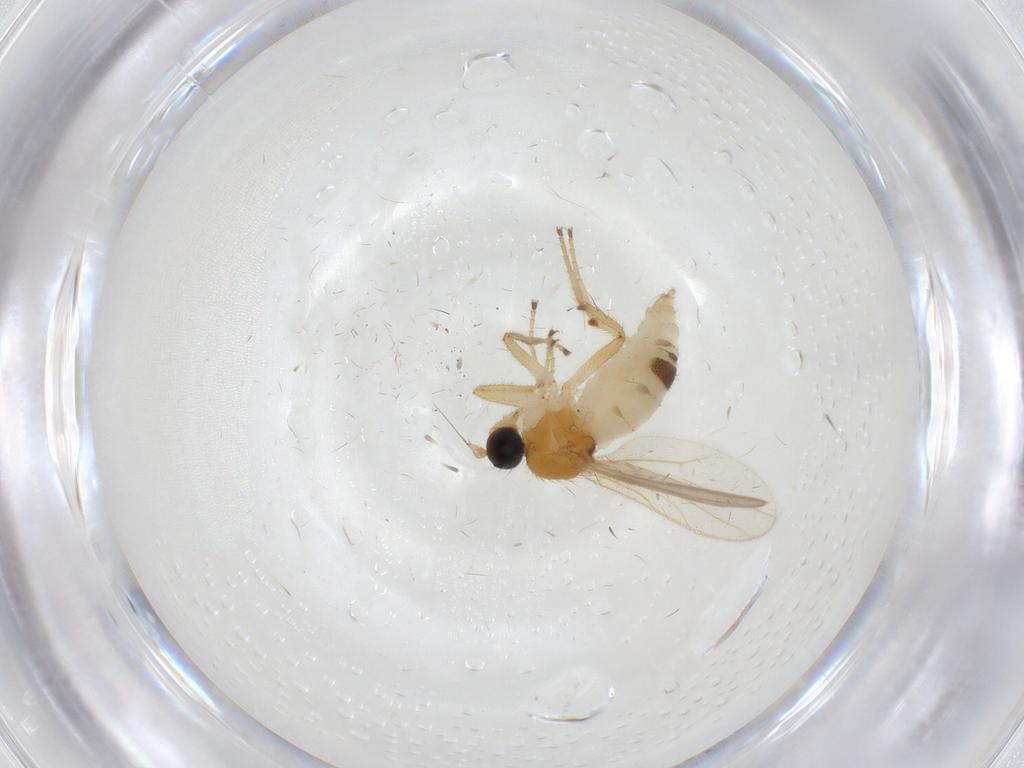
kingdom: Animalia
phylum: Arthropoda
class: Insecta
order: Diptera
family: Hybotidae
